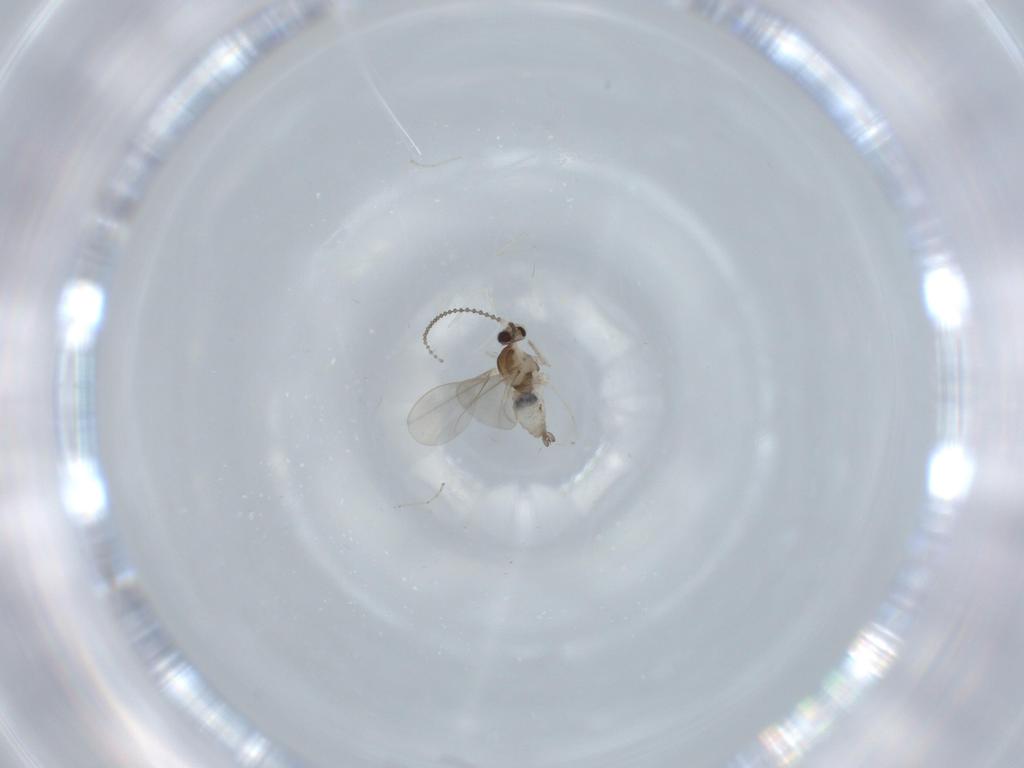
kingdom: Animalia
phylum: Arthropoda
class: Insecta
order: Diptera
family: Cecidomyiidae
